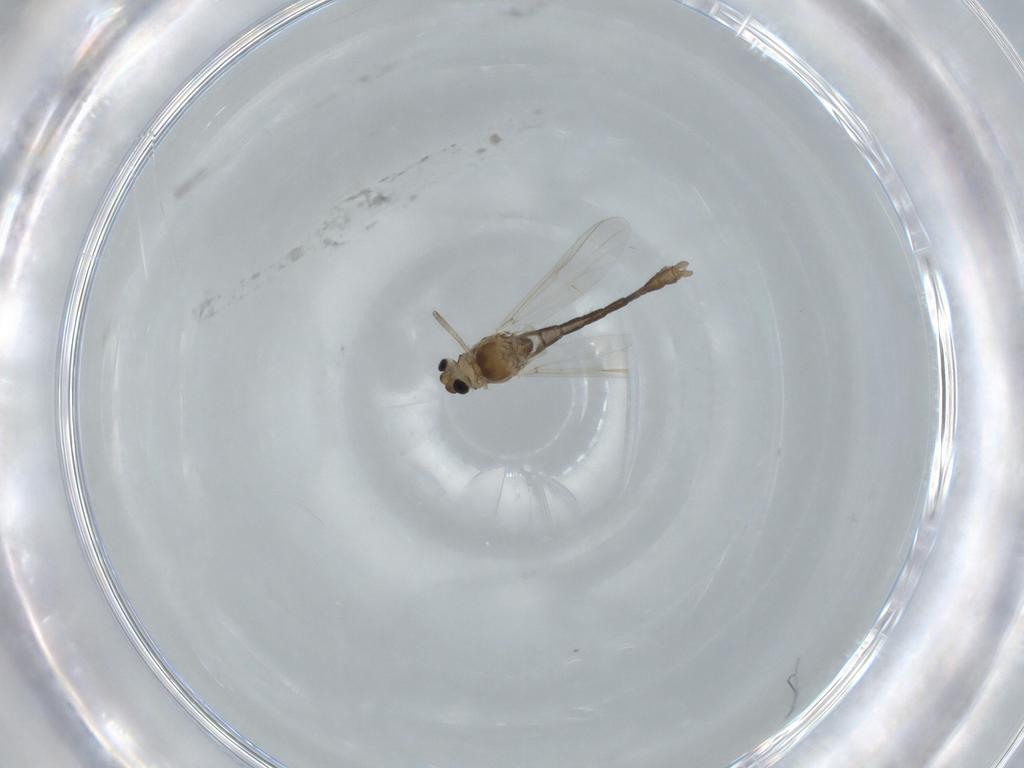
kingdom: Animalia
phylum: Arthropoda
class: Insecta
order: Diptera
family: Chironomidae
